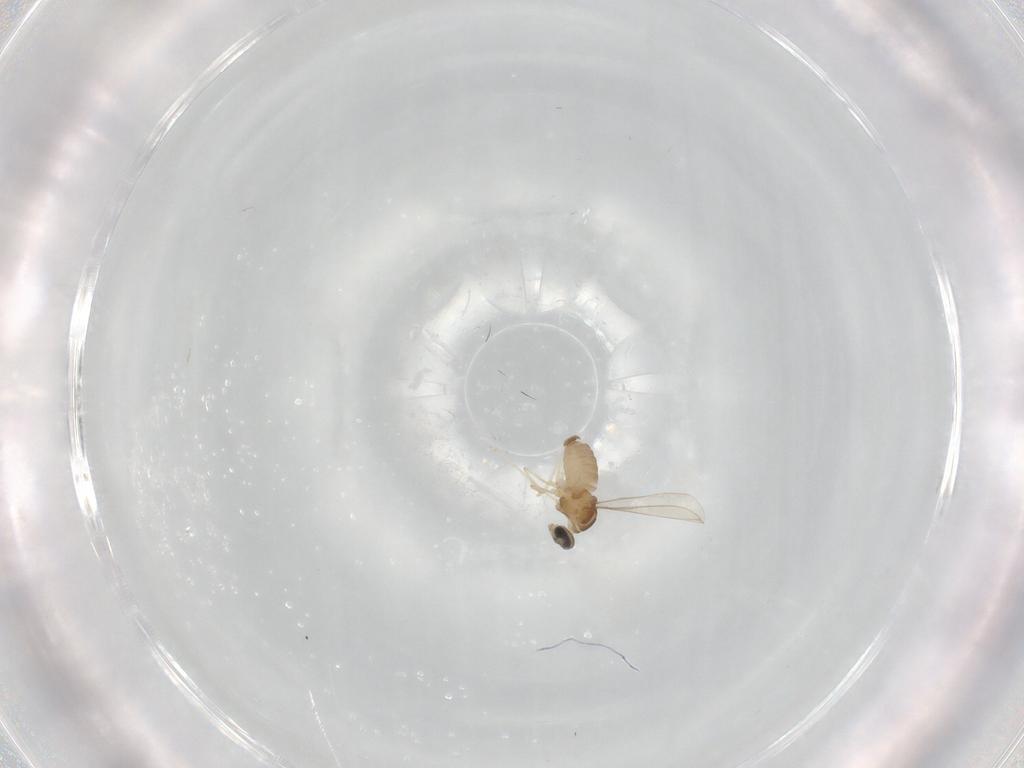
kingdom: Animalia
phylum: Arthropoda
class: Insecta
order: Diptera
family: Cecidomyiidae
